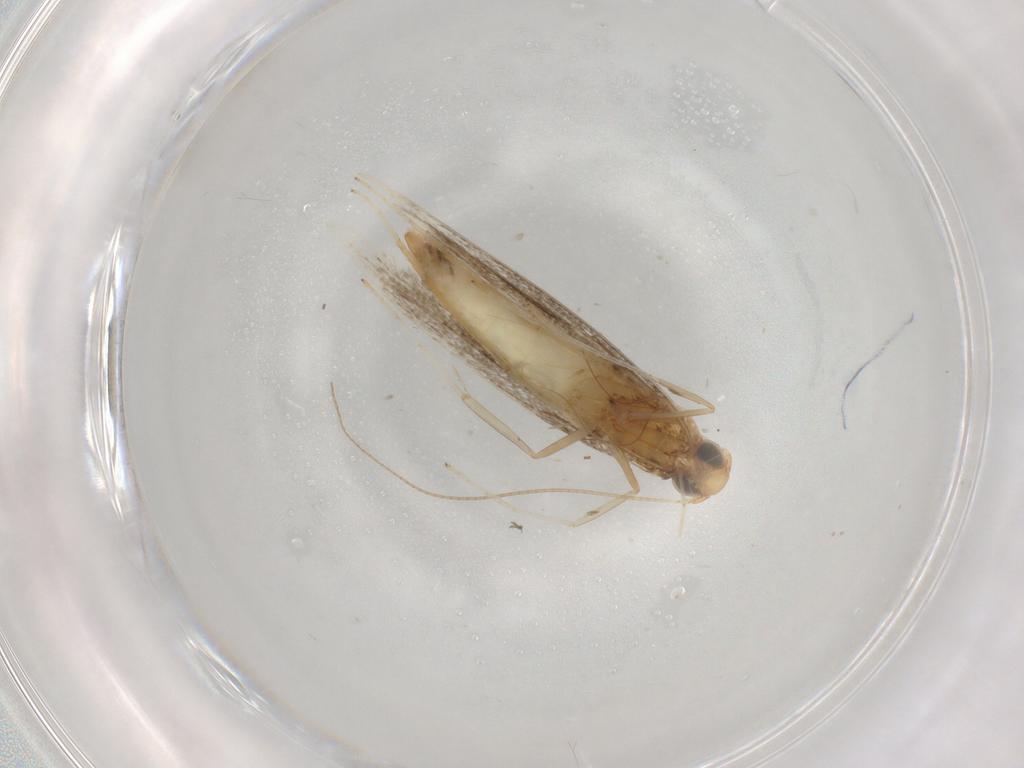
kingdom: Animalia
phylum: Arthropoda
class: Insecta
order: Lepidoptera
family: Gracillariidae
